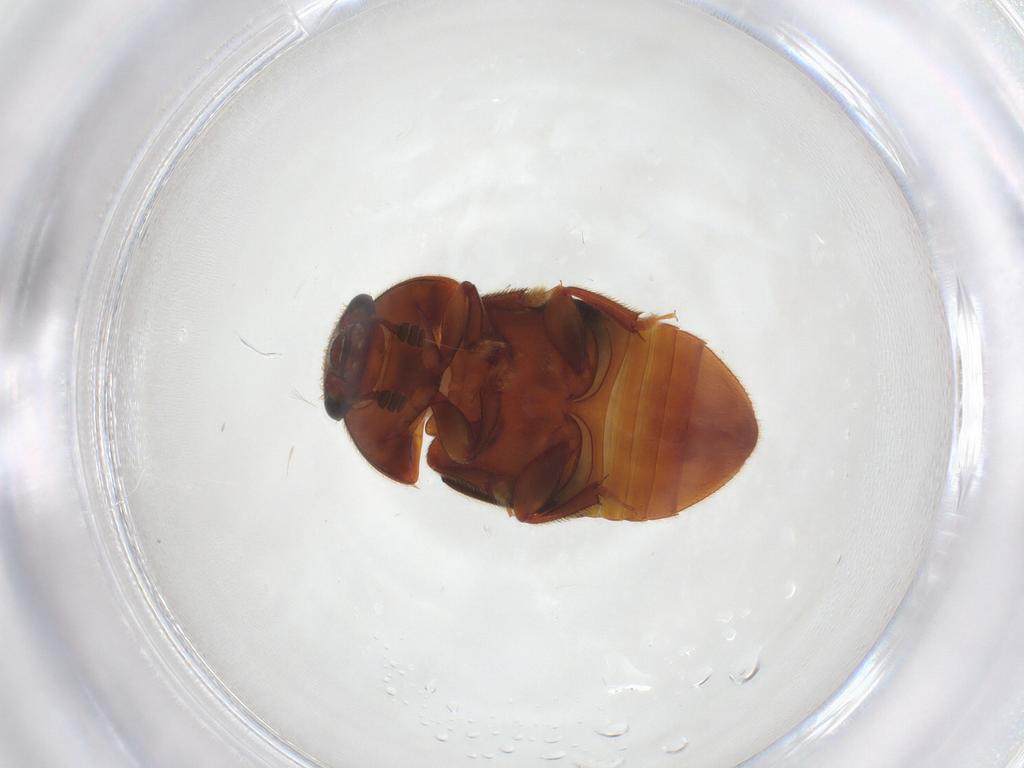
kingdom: Animalia
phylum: Arthropoda
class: Insecta
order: Coleoptera
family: Nitidulidae
